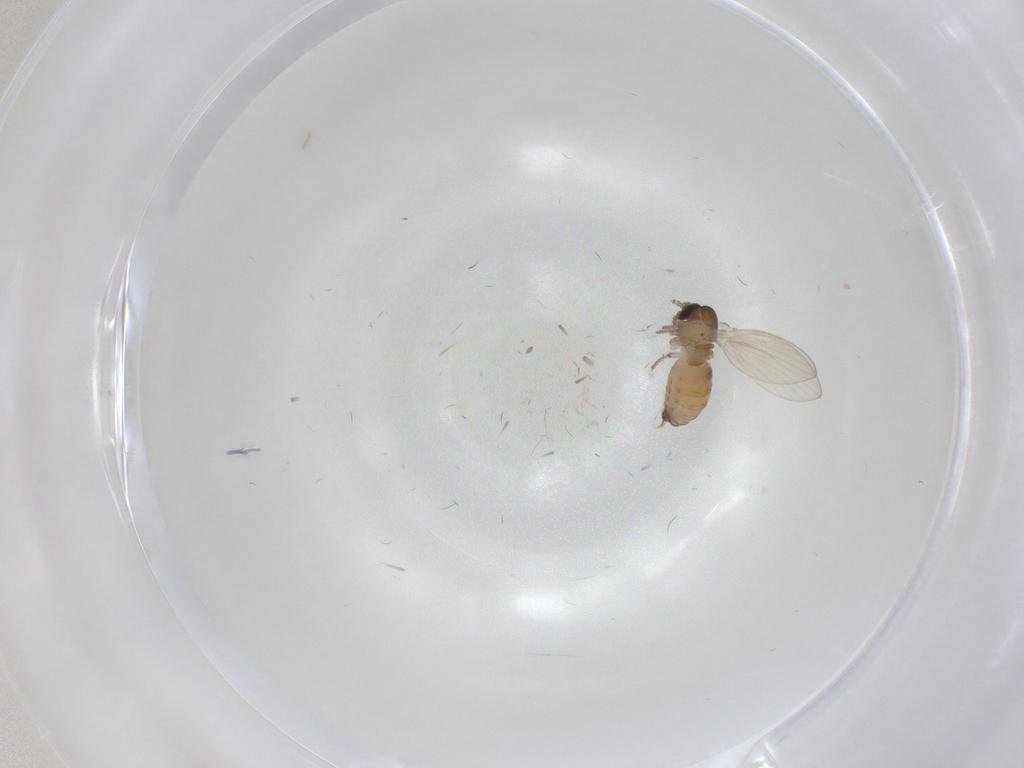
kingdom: Animalia
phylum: Arthropoda
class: Insecta
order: Diptera
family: Psychodidae
